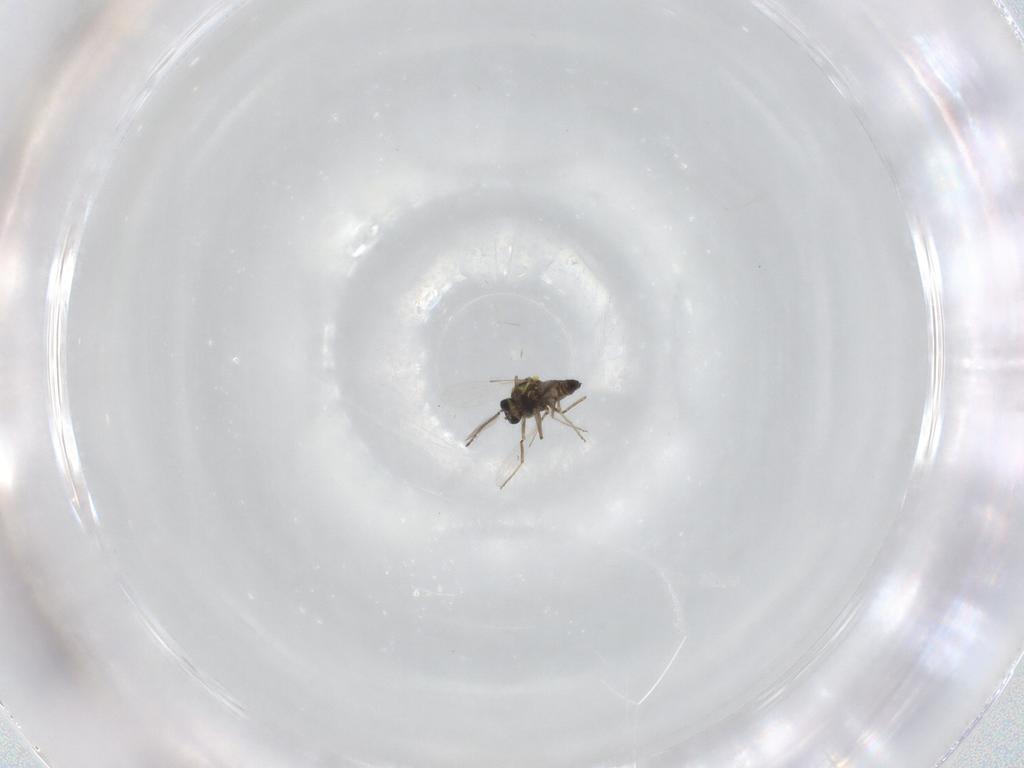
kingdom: Animalia
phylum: Arthropoda
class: Insecta
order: Diptera
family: Ceratopogonidae
